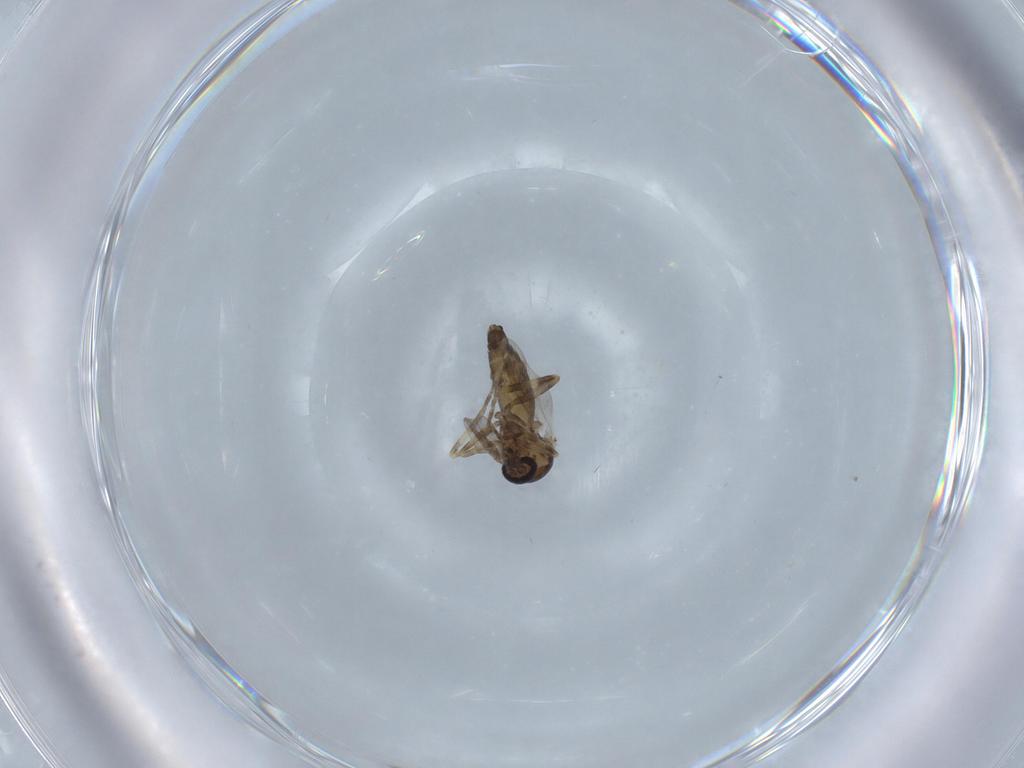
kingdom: Animalia
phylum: Arthropoda
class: Insecta
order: Diptera
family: Ceratopogonidae
